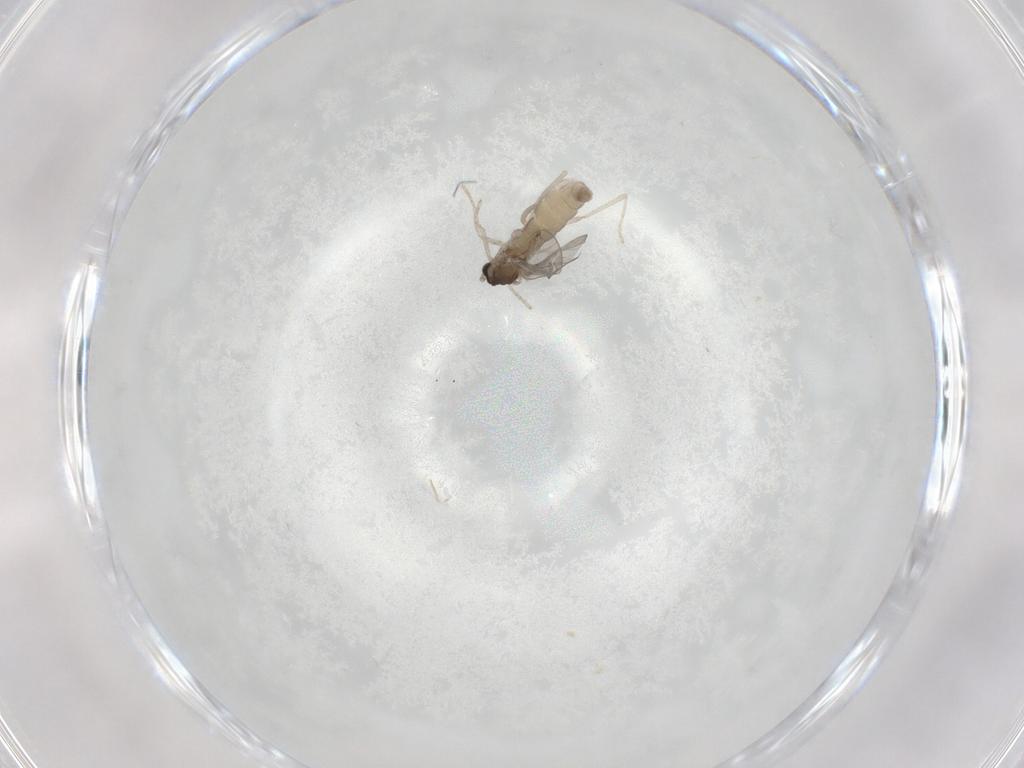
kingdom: Animalia
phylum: Arthropoda
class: Insecta
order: Diptera
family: Cecidomyiidae
